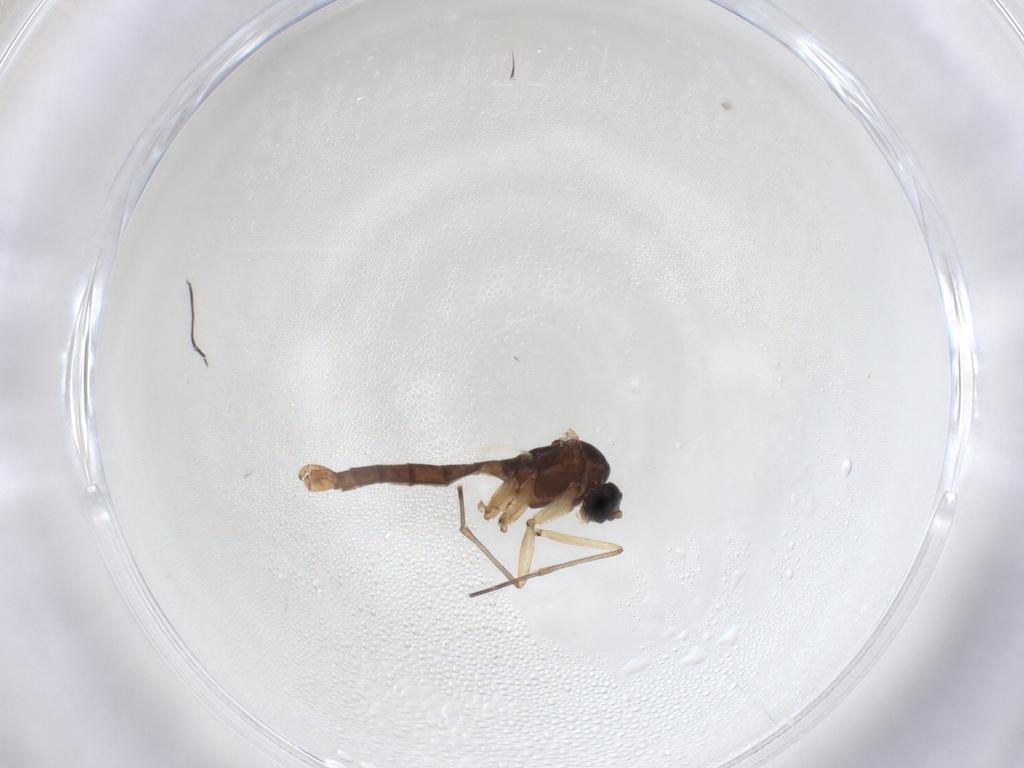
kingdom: Animalia
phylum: Arthropoda
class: Insecta
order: Diptera
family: Sciaridae
